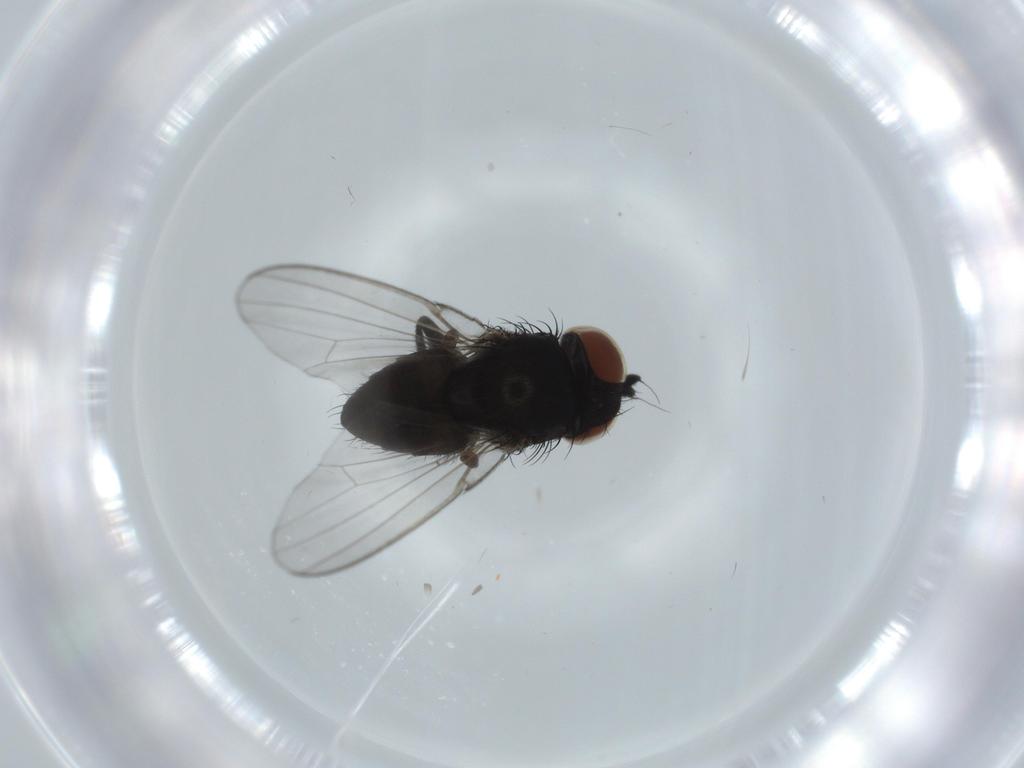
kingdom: Animalia
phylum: Arthropoda
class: Insecta
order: Diptera
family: Milichiidae
